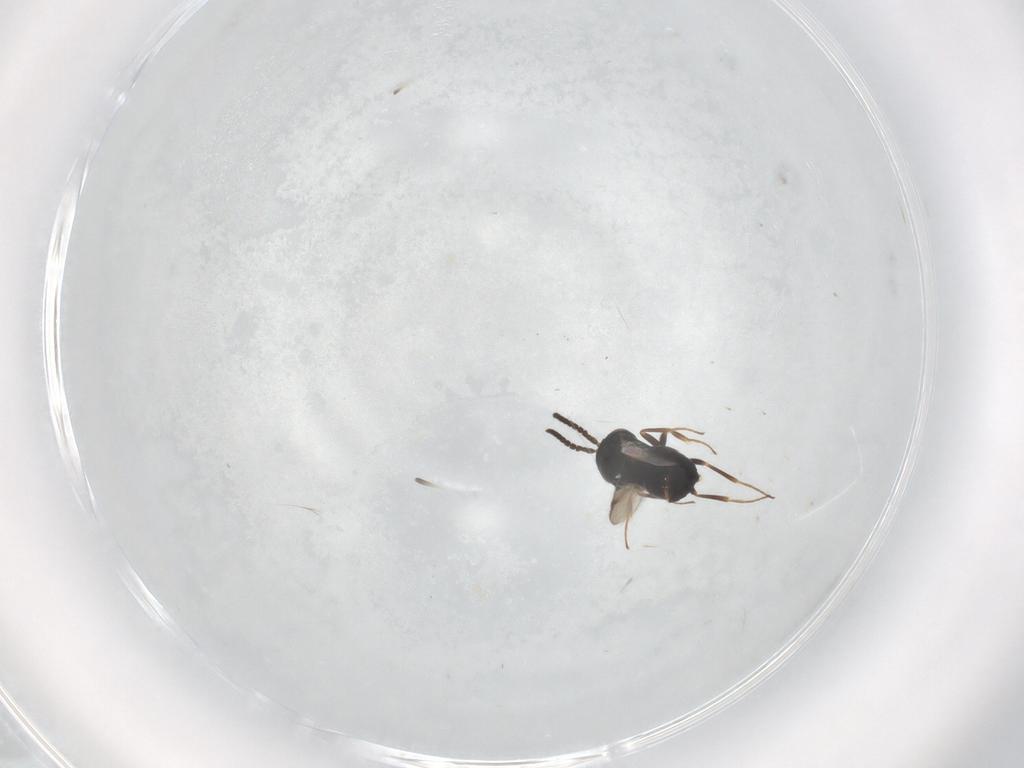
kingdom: Animalia
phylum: Arthropoda
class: Insecta
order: Hymenoptera
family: Scelionidae
